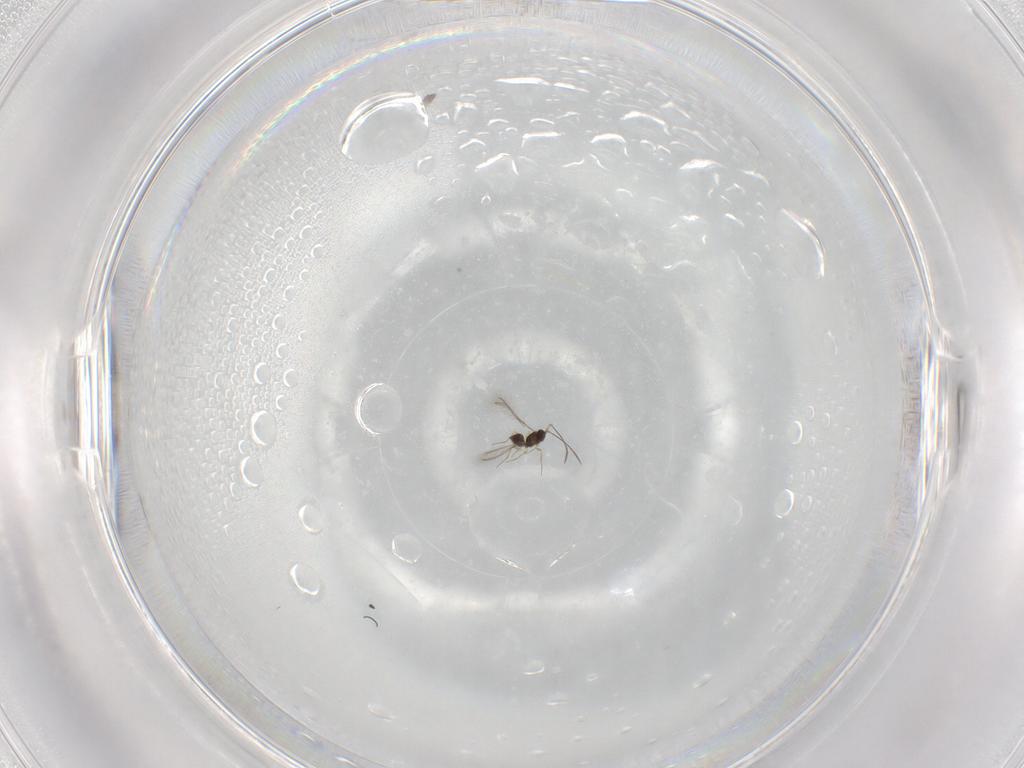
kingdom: Animalia
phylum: Arthropoda
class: Insecta
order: Hymenoptera
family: Mymaridae
